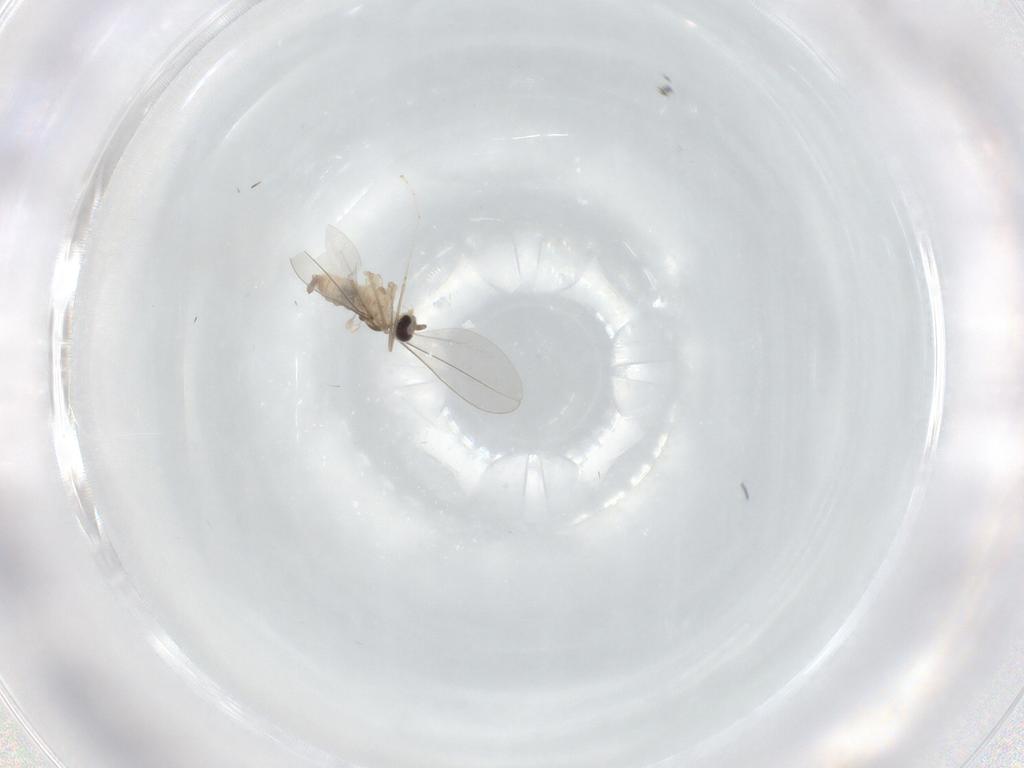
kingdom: Animalia
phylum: Arthropoda
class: Insecta
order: Diptera
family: Cecidomyiidae
